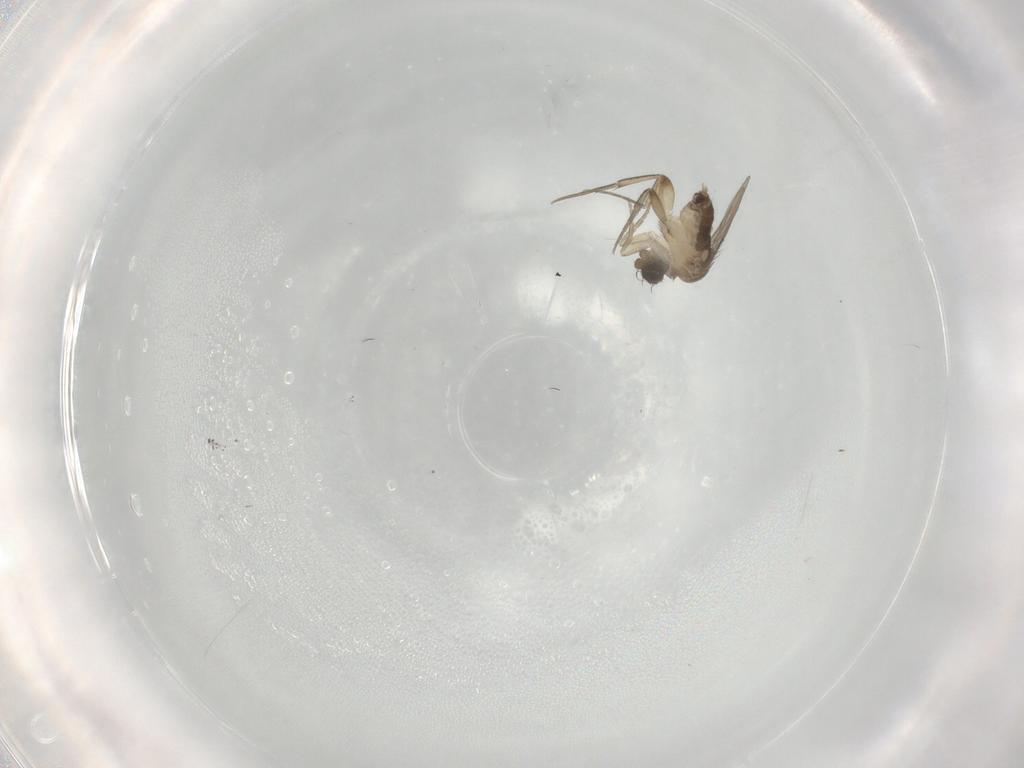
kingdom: Animalia
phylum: Arthropoda
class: Insecta
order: Diptera
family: Phoridae
